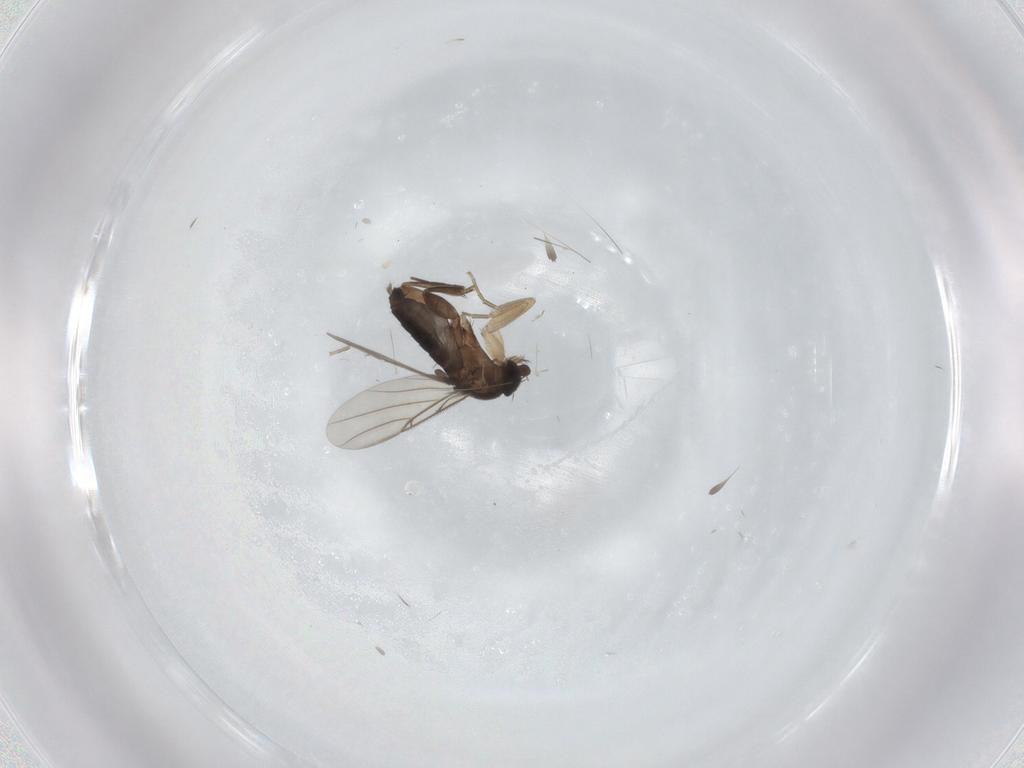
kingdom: Animalia
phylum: Arthropoda
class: Insecta
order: Diptera
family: Phoridae
